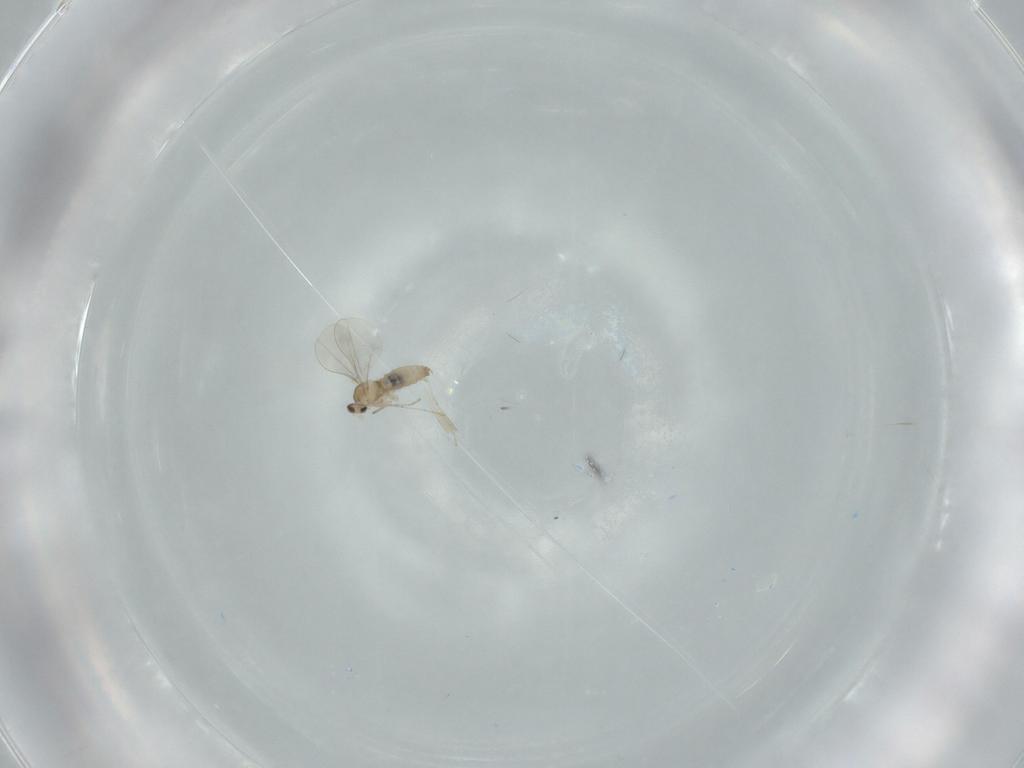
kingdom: Animalia
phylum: Arthropoda
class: Insecta
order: Diptera
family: Cecidomyiidae
